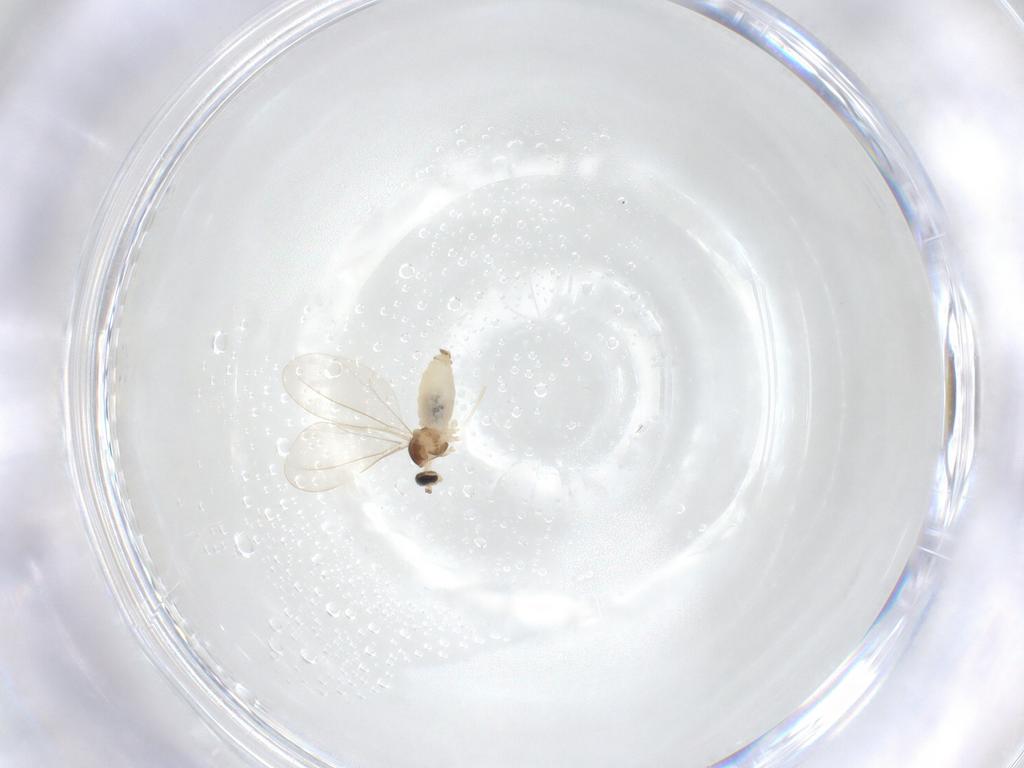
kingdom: Animalia
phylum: Arthropoda
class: Insecta
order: Diptera
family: Cecidomyiidae
